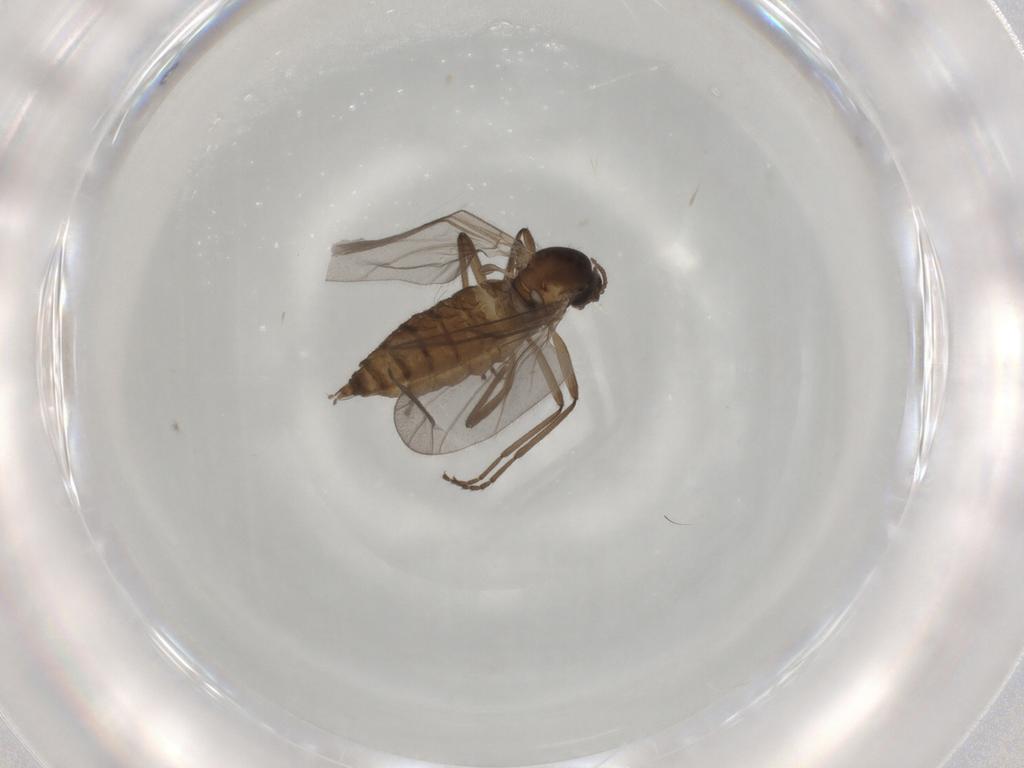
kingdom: Animalia
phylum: Arthropoda
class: Insecta
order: Diptera
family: Cecidomyiidae
